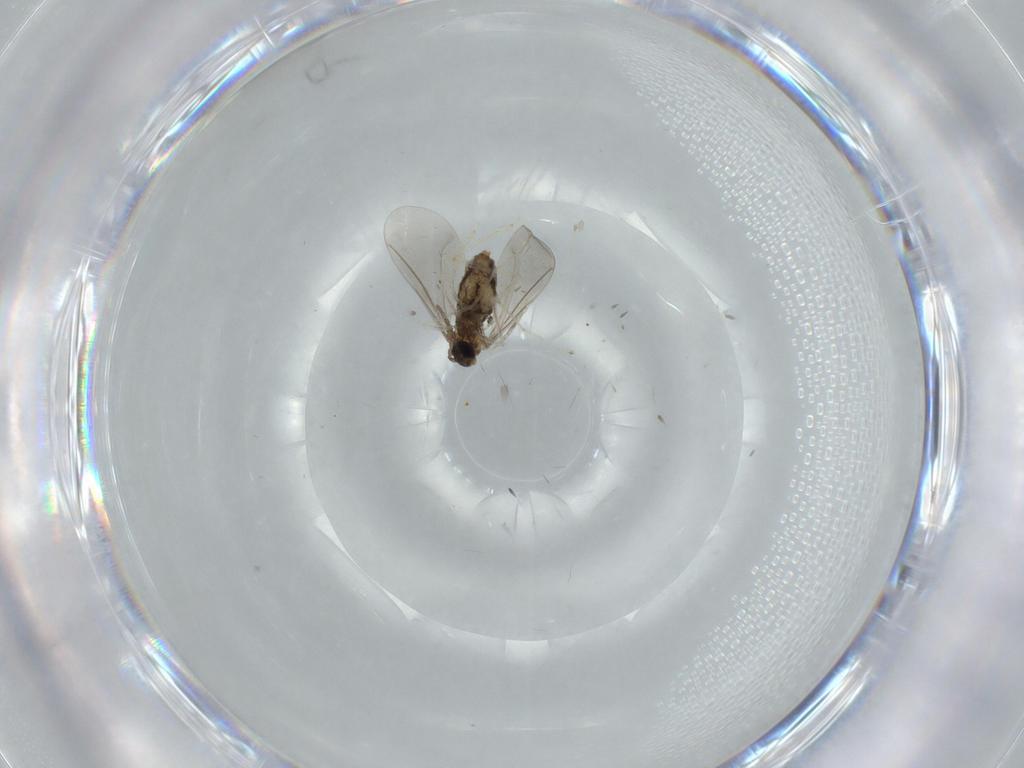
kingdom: Animalia
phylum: Arthropoda
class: Insecta
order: Diptera
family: Cecidomyiidae
